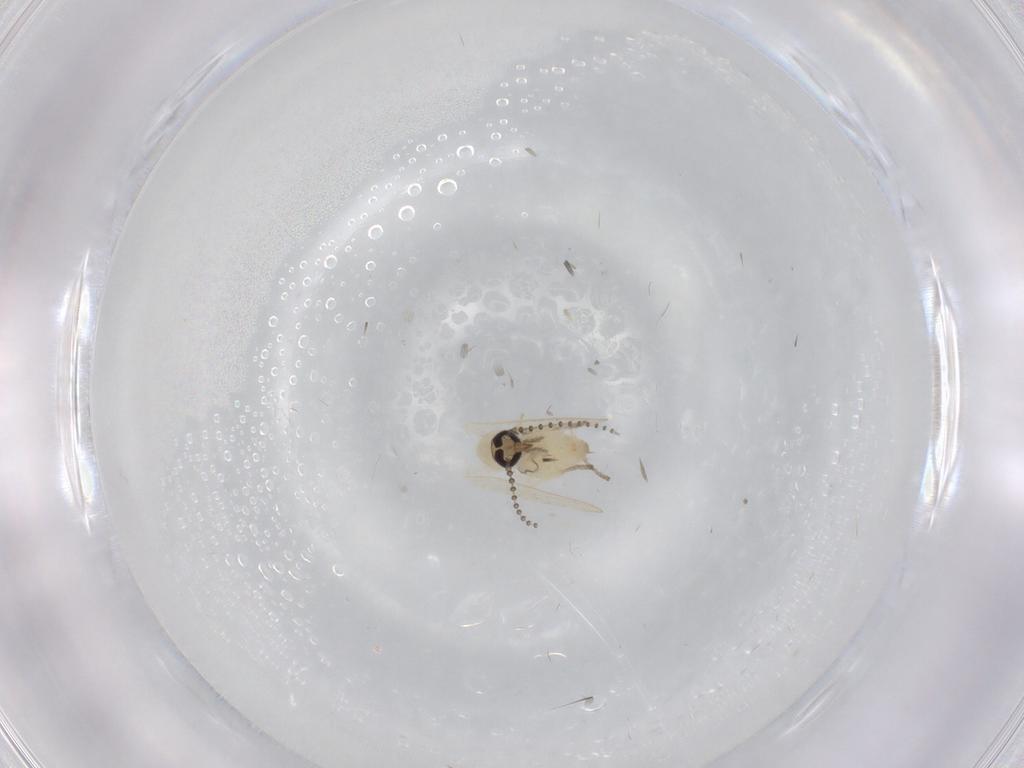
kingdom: Animalia
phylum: Arthropoda
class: Insecta
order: Diptera
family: Psychodidae
